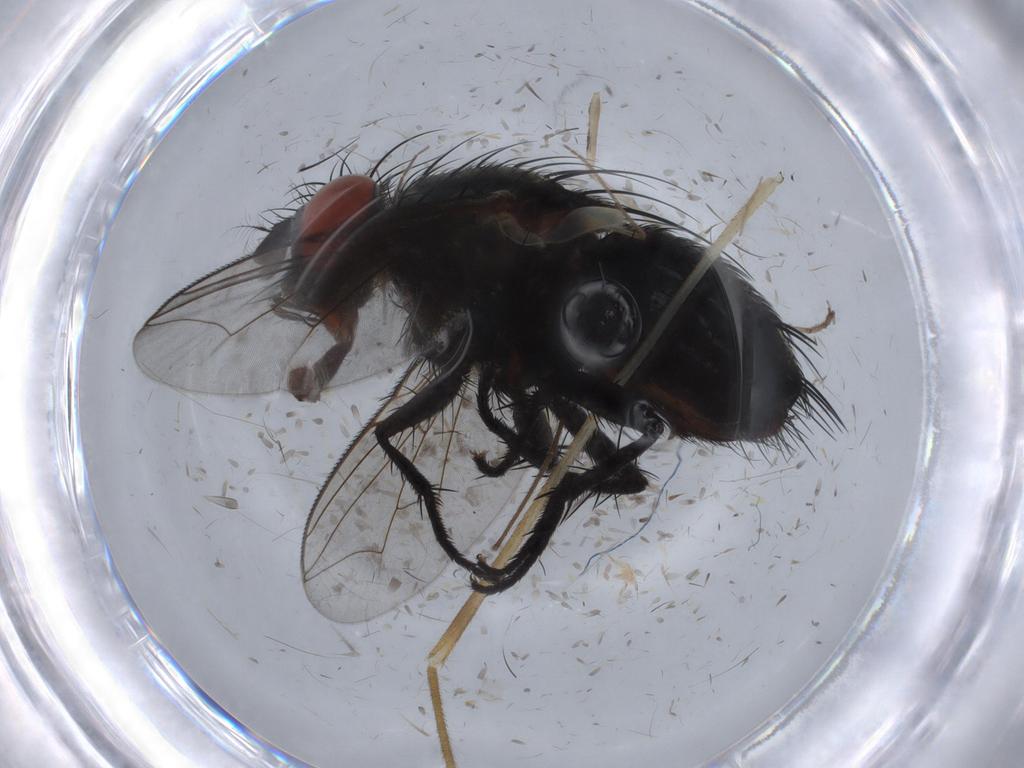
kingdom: Animalia
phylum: Arthropoda
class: Insecta
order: Diptera
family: Sarcophagidae
